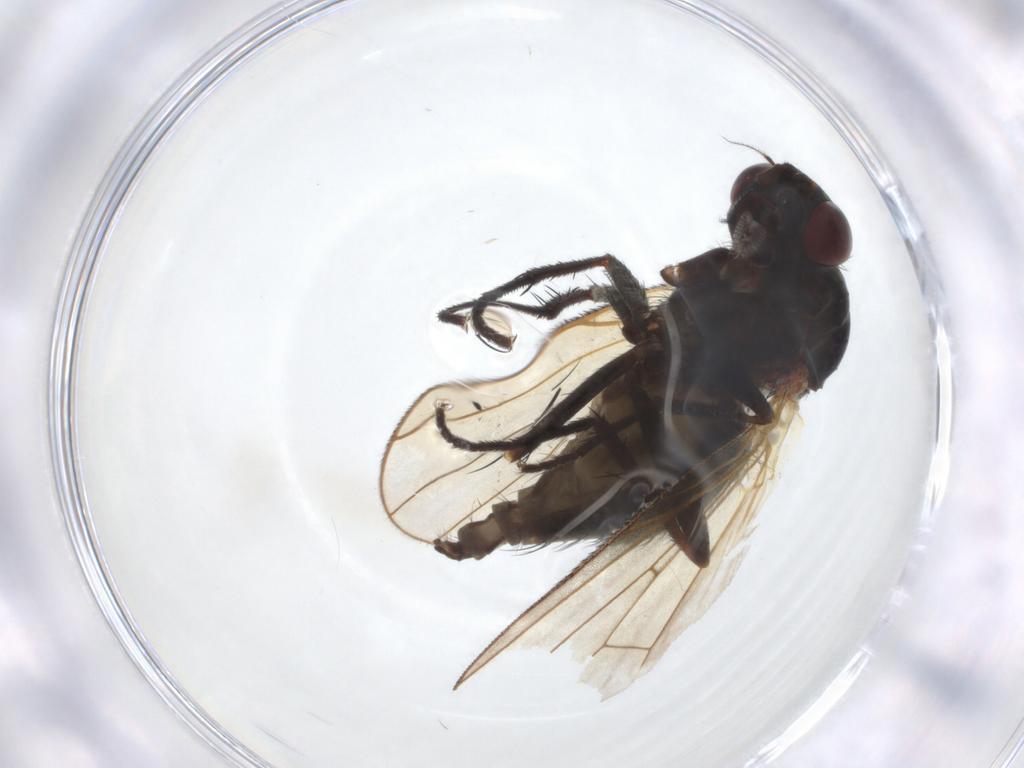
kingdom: Animalia
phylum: Arthropoda
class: Insecta
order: Diptera
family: Anthomyiidae
